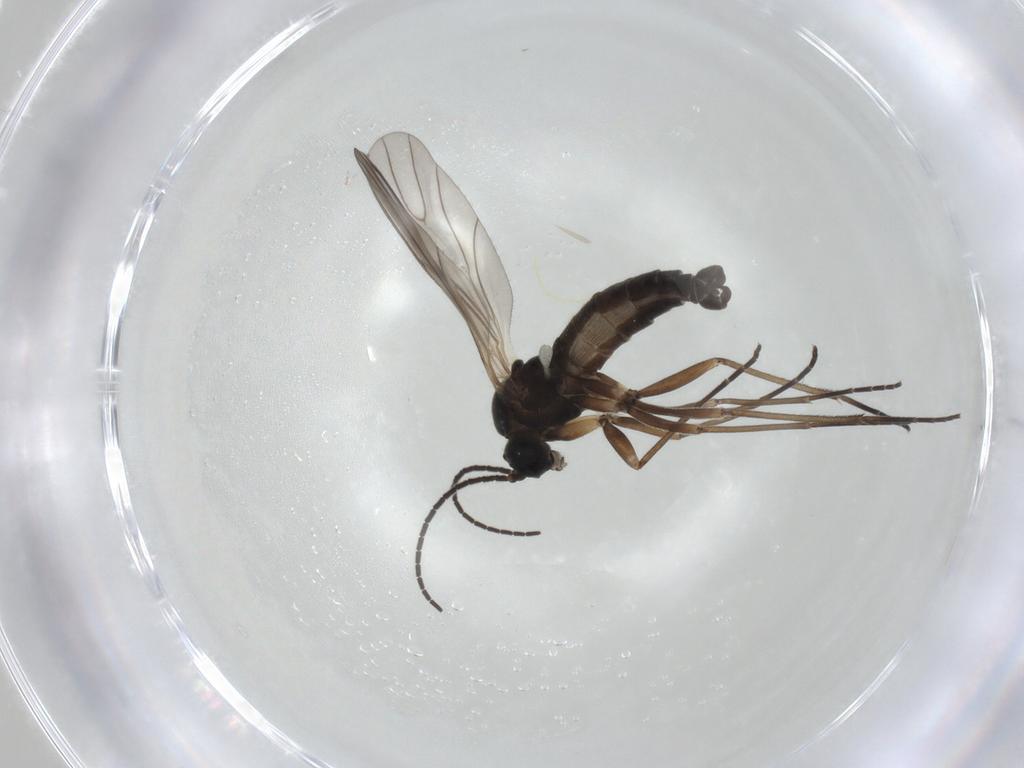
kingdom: Animalia
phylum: Arthropoda
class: Insecta
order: Diptera
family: Sciaridae
